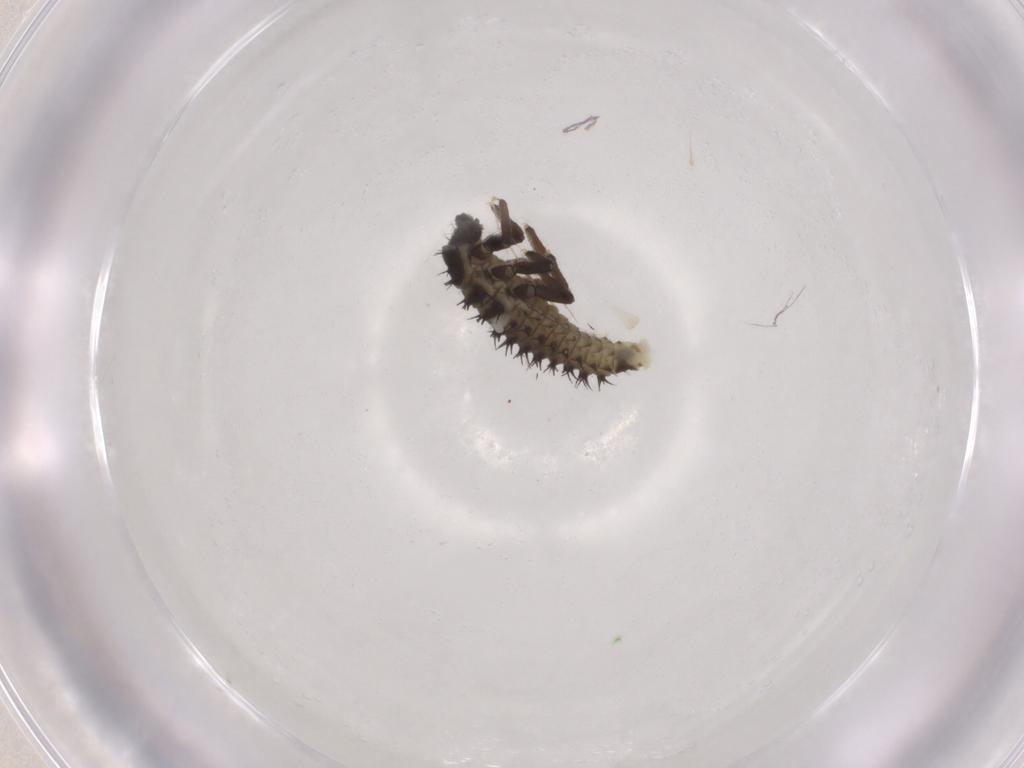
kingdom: Animalia
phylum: Arthropoda
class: Insecta
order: Coleoptera
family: Coccinellidae
